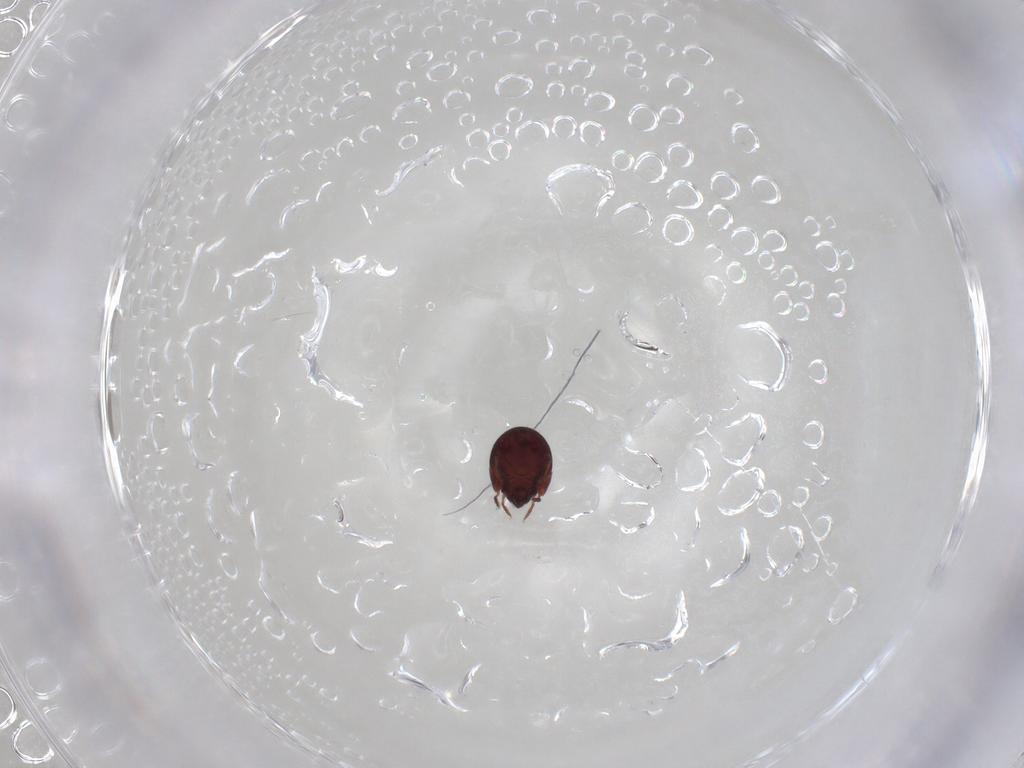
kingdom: Animalia
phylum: Arthropoda
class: Arachnida
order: Sarcoptiformes
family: Humerobatidae
